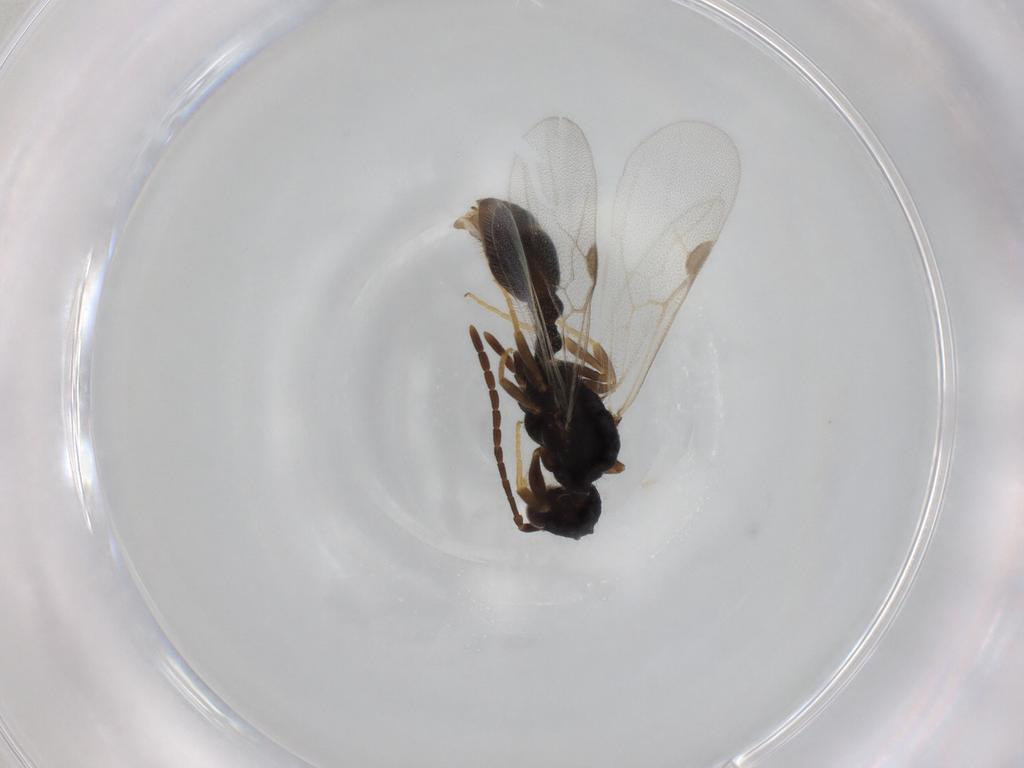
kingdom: Animalia
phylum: Arthropoda
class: Insecta
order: Hymenoptera
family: Formicidae
